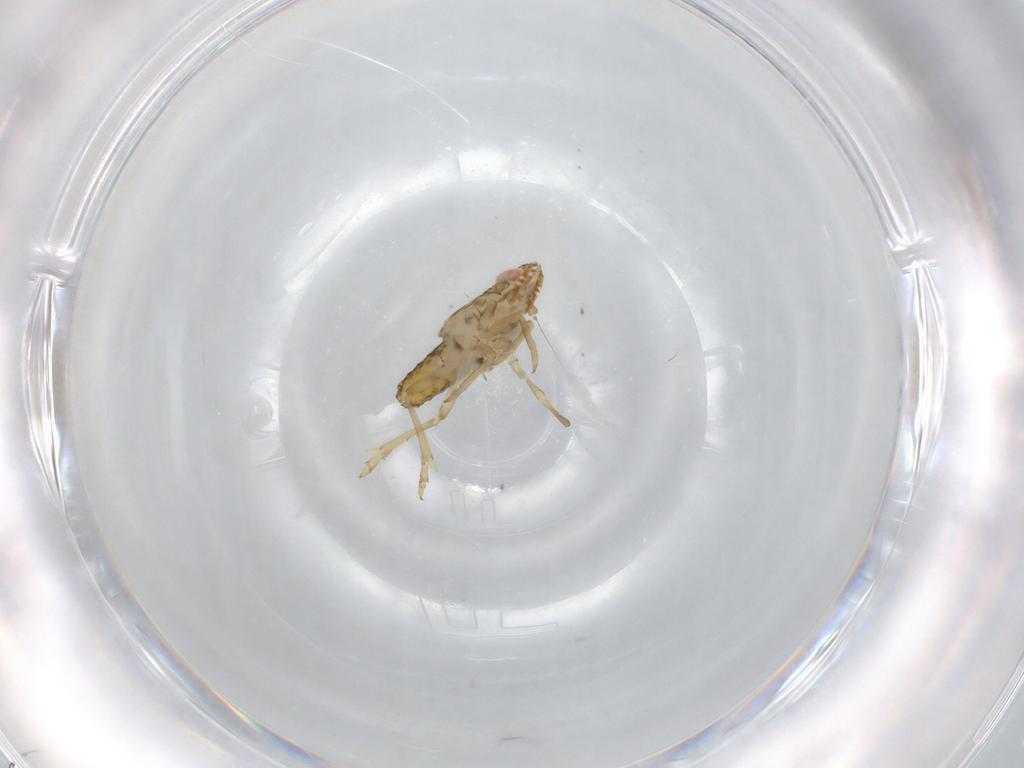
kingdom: Animalia
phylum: Arthropoda
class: Insecta
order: Hemiptera
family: Delphacidae
